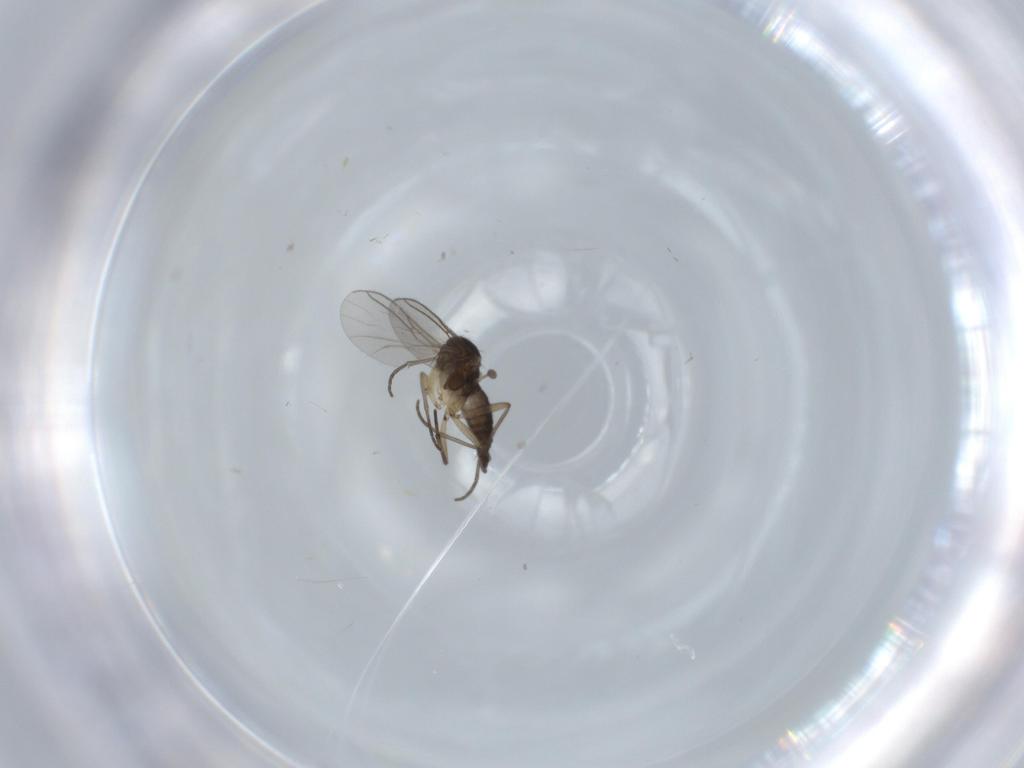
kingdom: Animalia
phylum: Arthropoda
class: Insecta
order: Diptera
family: Sciaridae
